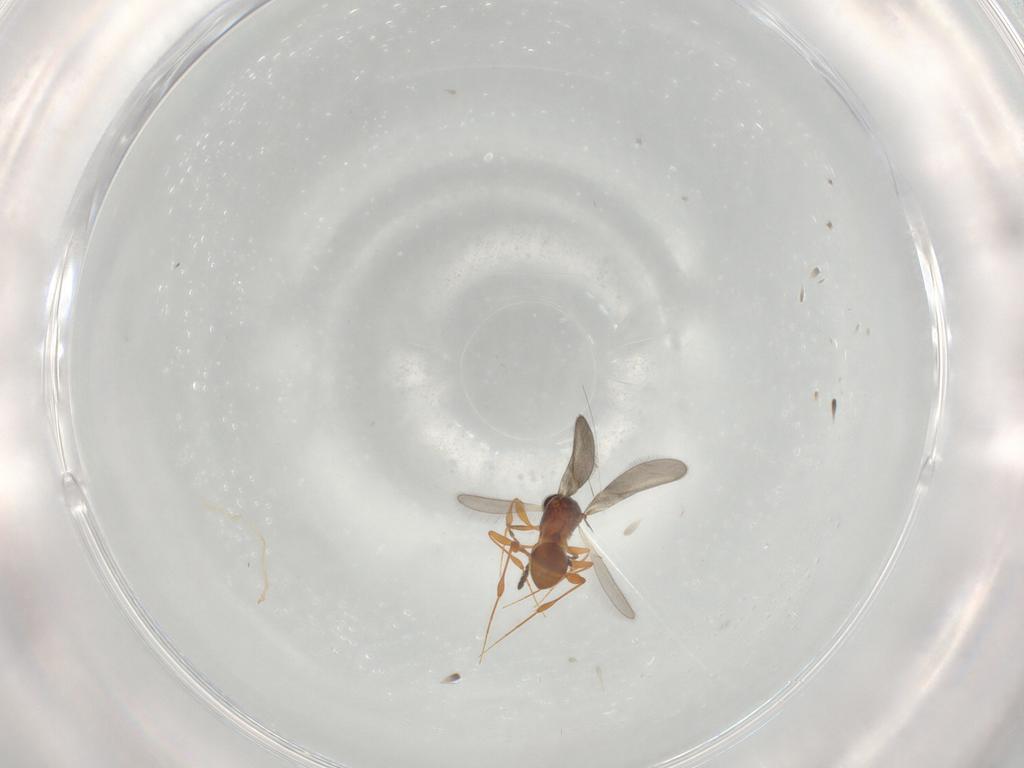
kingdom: Animalia
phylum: Arthropoda
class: Insecta
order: Hymenoptera
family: Platygastridae
